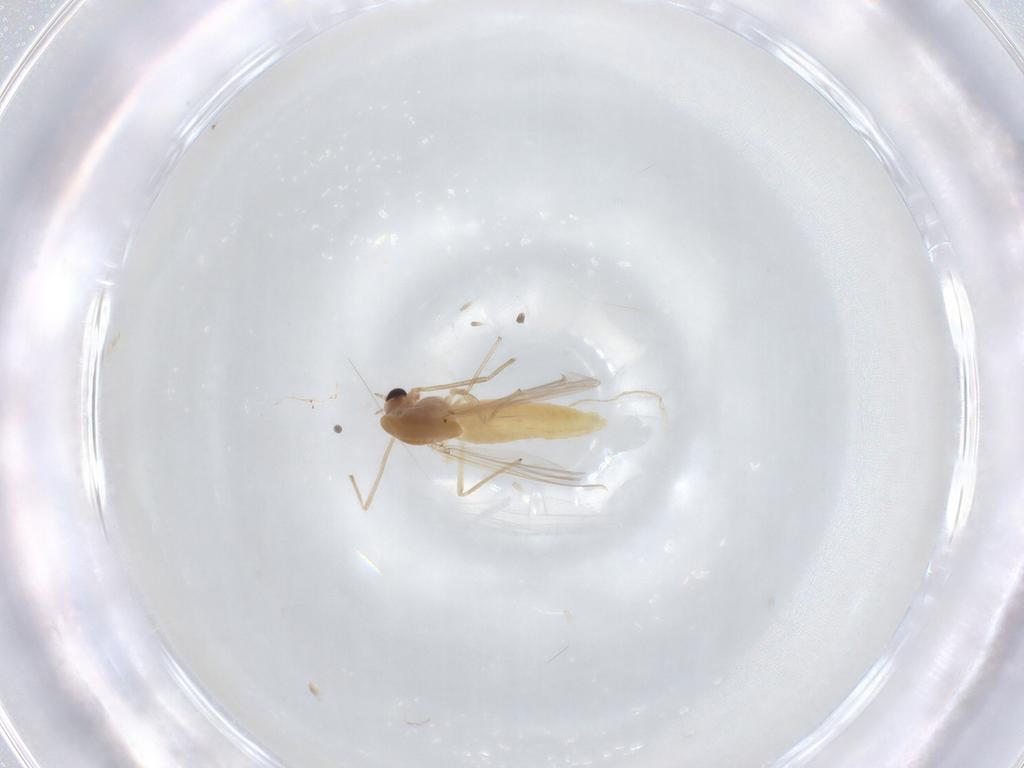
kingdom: Animalia
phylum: Arthropoda
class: Insecta
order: Diptera
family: Chironomidae
